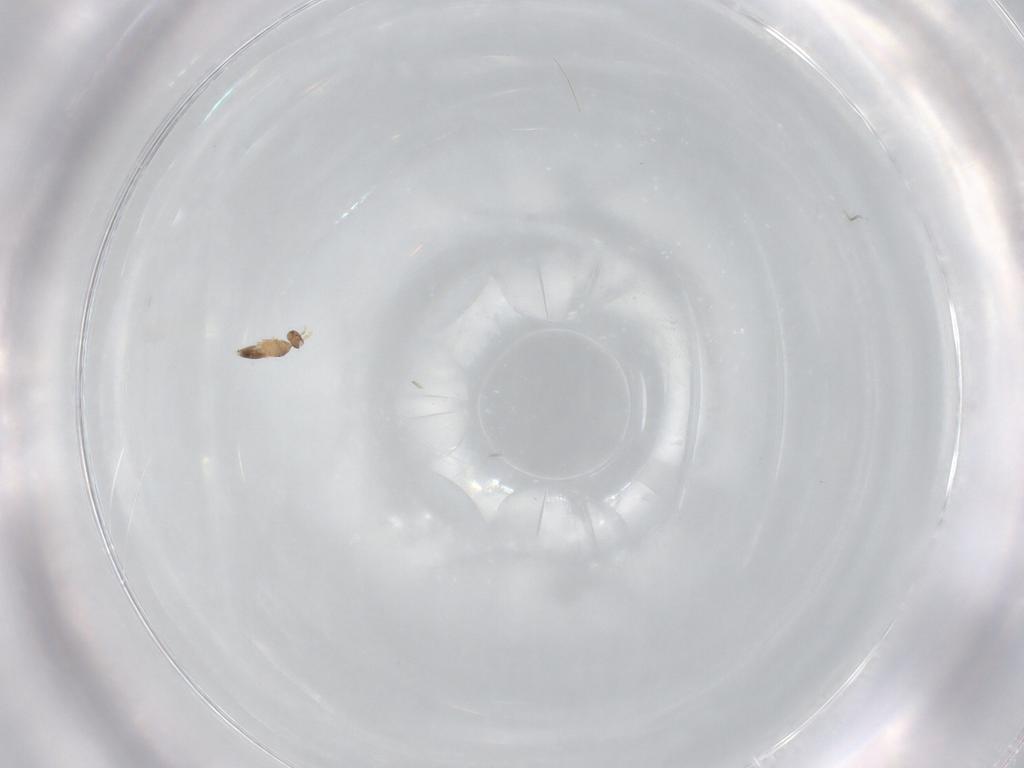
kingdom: Animalia
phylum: Arthropoda
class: Insecta
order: Hymenoptera
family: Mymaridae
